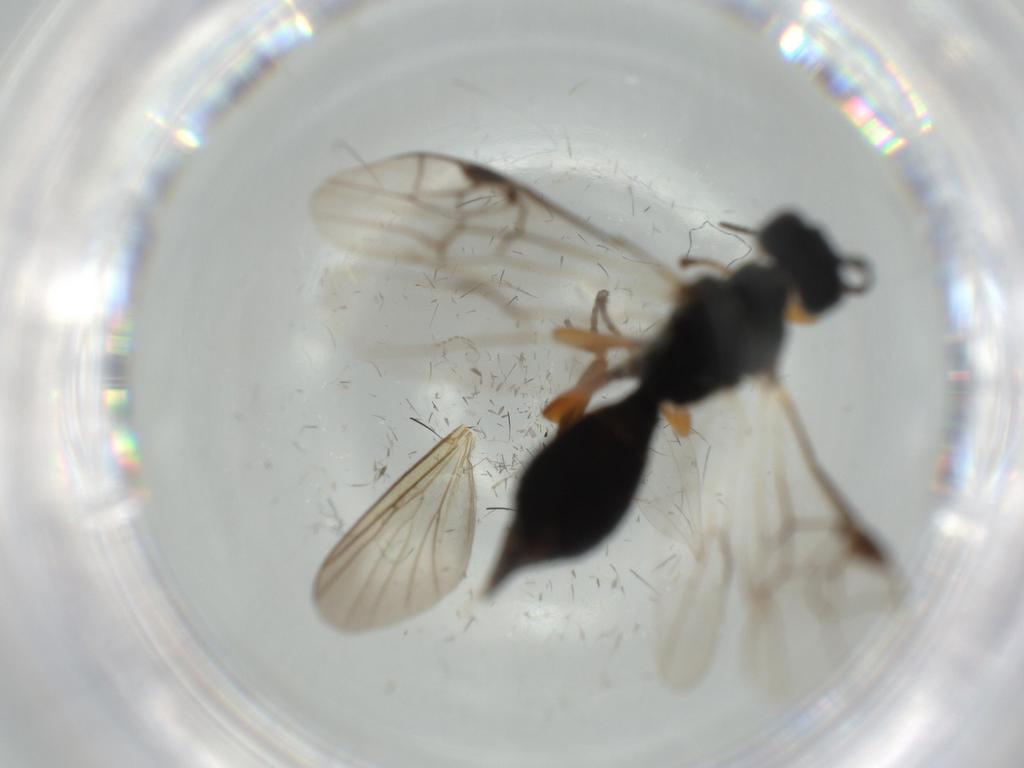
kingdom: Animalia
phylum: Arthropoda
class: Insecta
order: Hymenoptera
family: Braconidae
